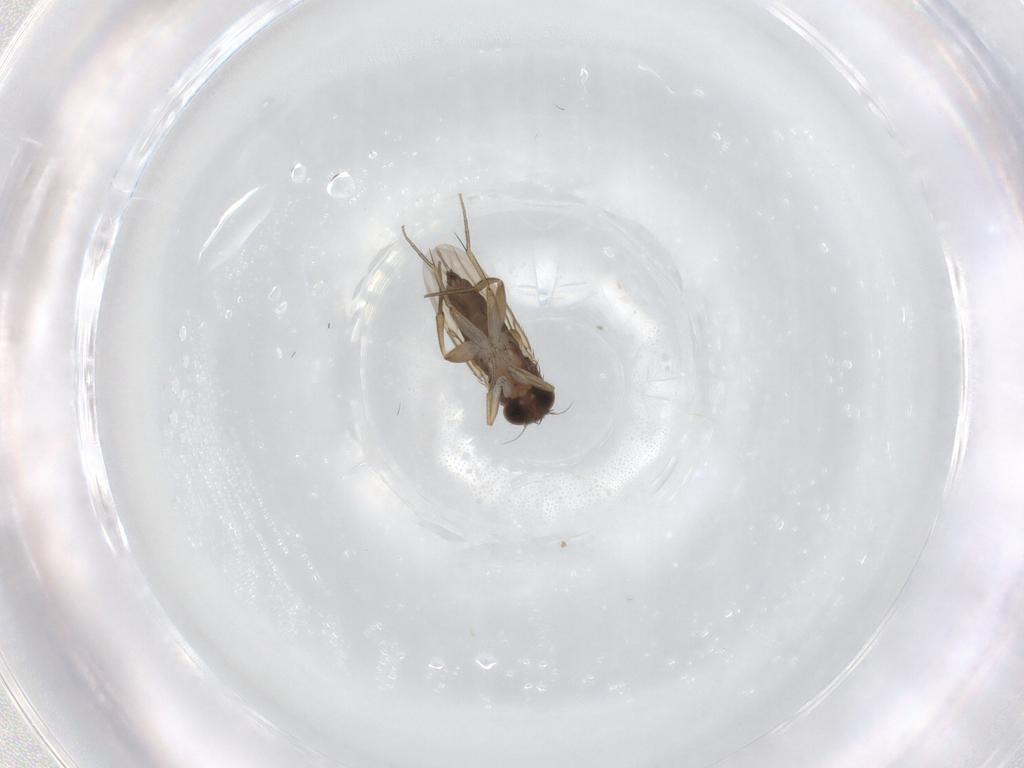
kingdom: Animalia
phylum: Arthropoda
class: Insecta
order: Diptera
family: Phoridae
